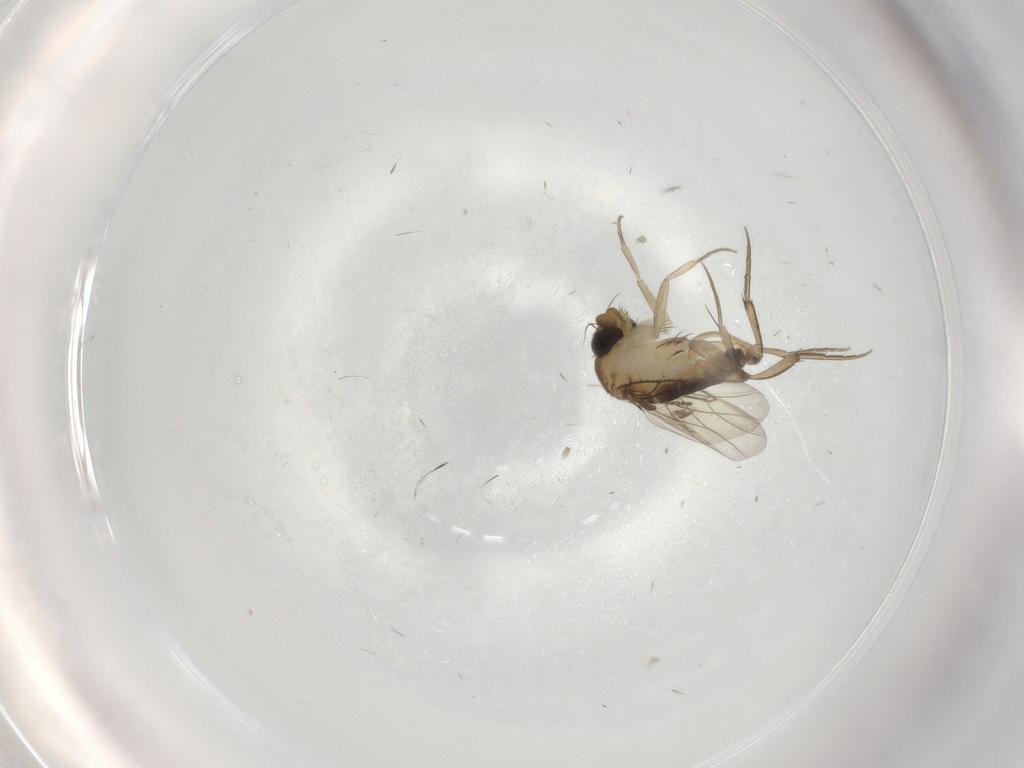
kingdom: Animalia
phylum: Arthropoda
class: Insecta
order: Diptera
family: Phoridae
